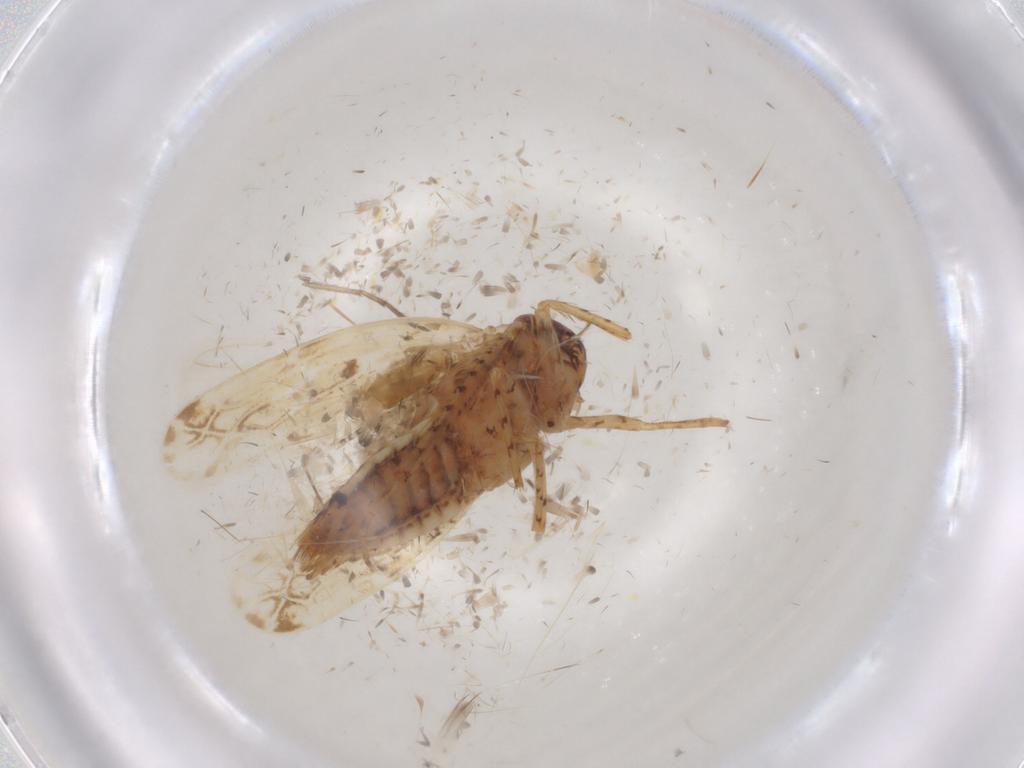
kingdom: Animalia
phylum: Arthropoda
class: Insecta
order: Hemiptera
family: Cicadellidae
